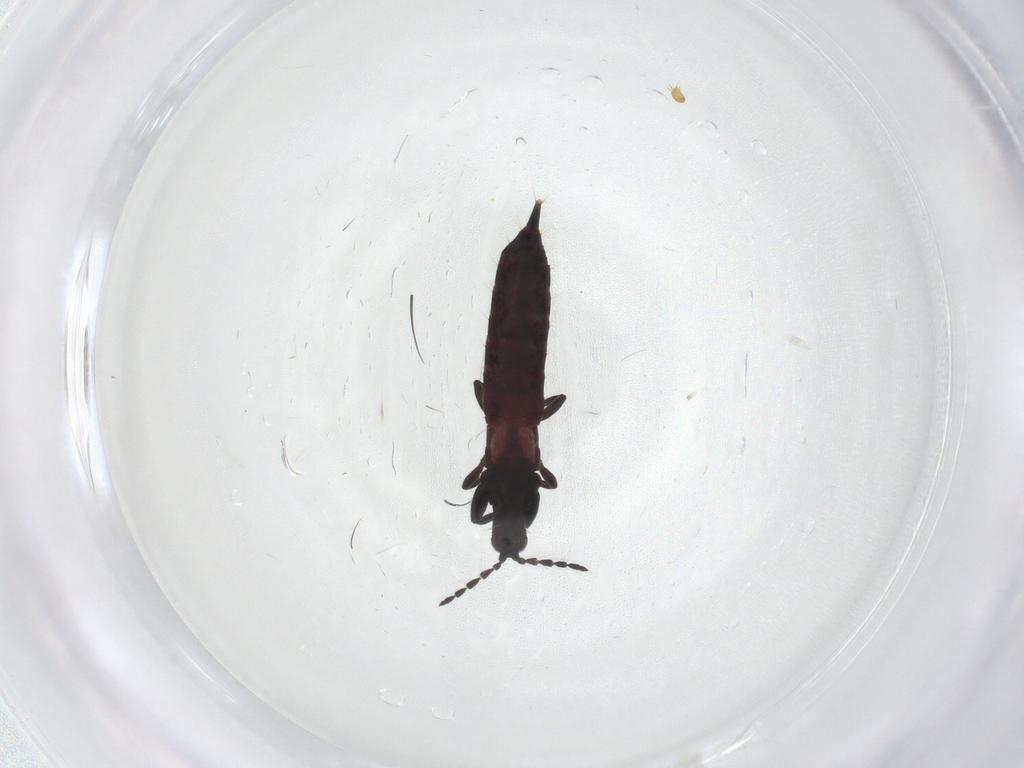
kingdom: Animalia
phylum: Arthropoda
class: Insecta
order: Thysanoptera
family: Phlaeothripidae
